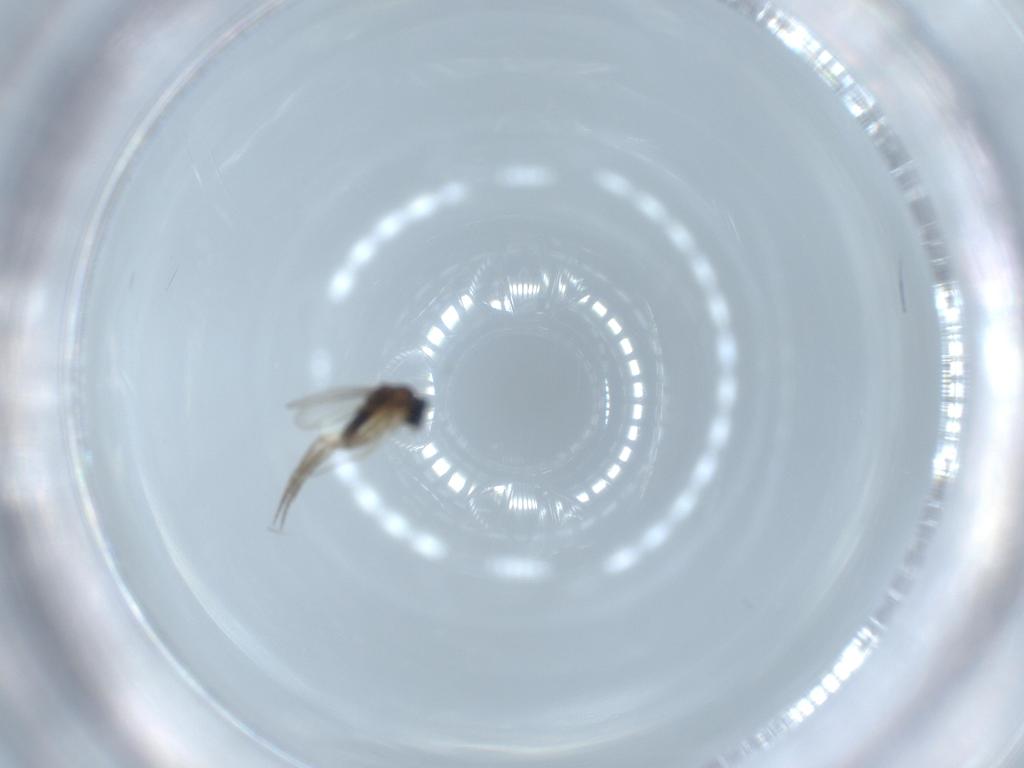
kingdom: Animalia
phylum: Arthropoda
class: Insecta
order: Diptera
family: Phoridae
